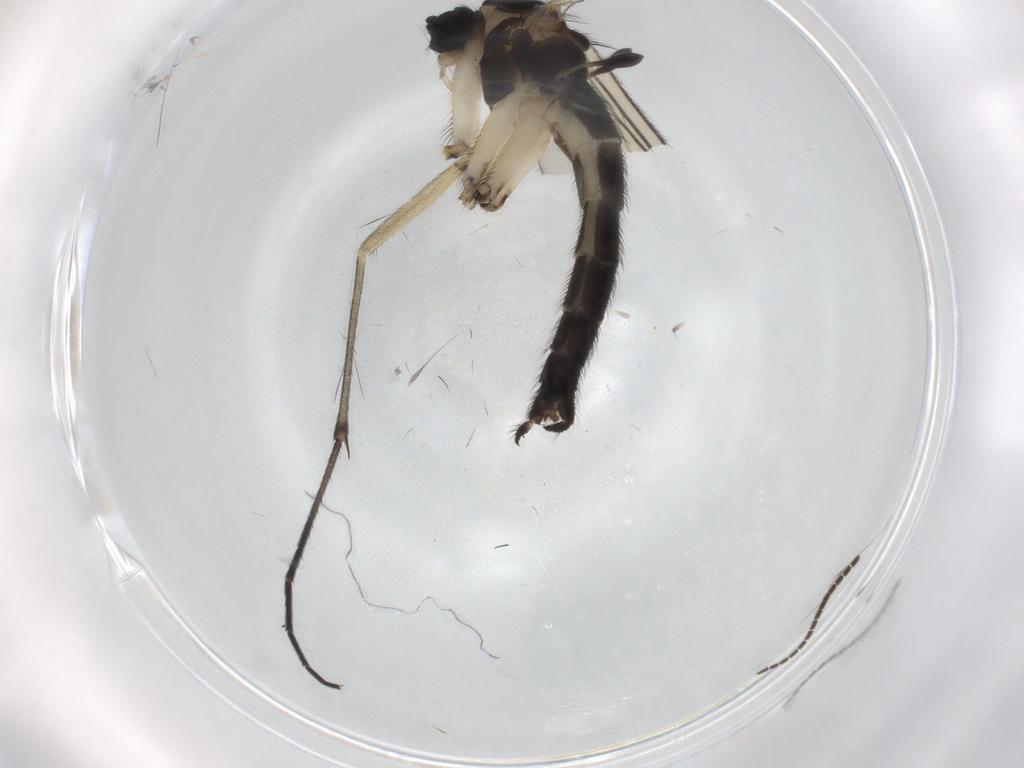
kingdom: Animalia
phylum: Arthropoda
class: Insecta
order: Diptera
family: Sciaridae
